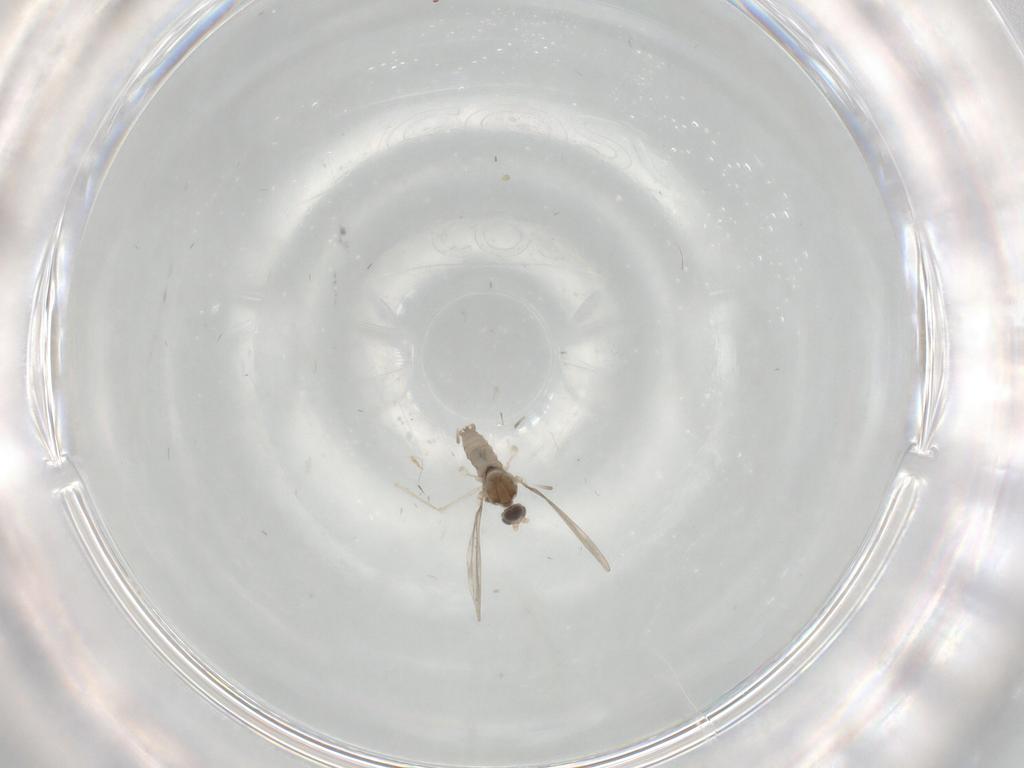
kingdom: Animalia
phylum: Arthropoda
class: Insecta
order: Diptera
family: Cecidomyiidae
